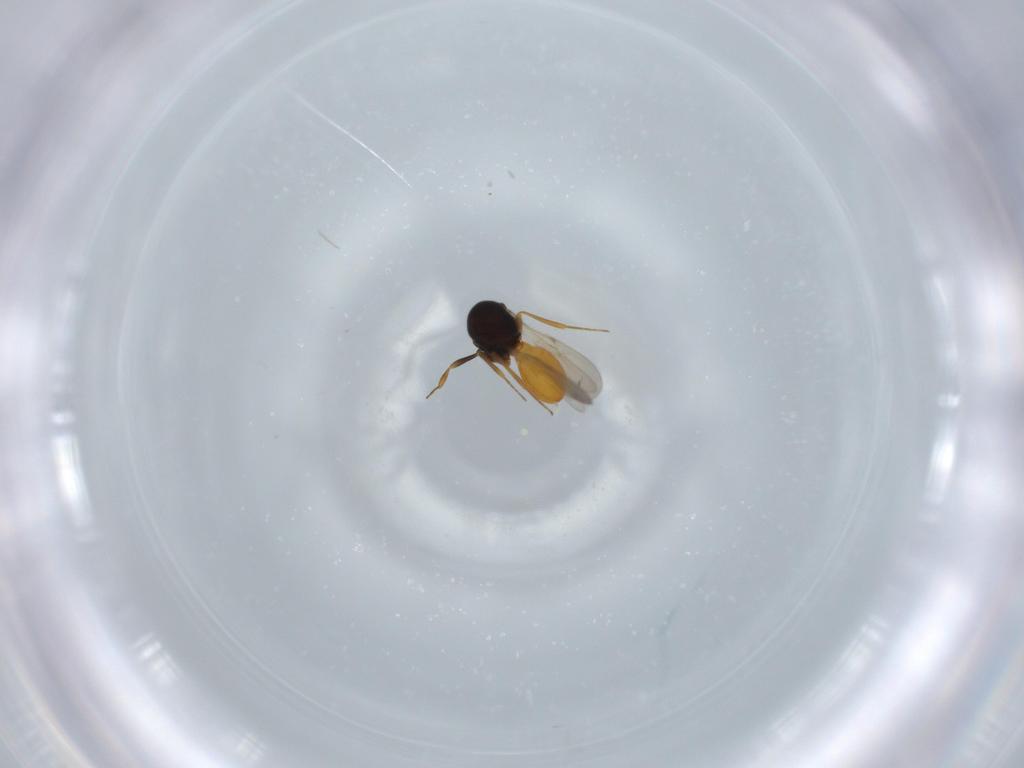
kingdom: Animalia
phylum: Arthropoda
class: Insecta
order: Hymenoptera
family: Scelionidae
